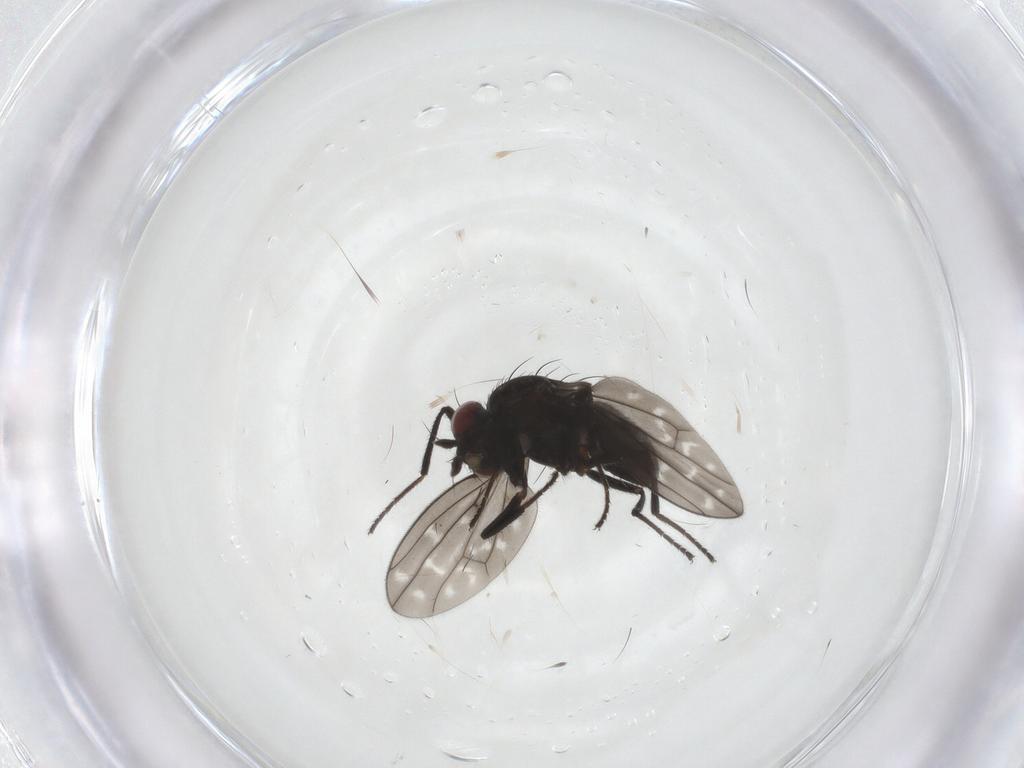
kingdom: Animalia
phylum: Arthropoda
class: Insecta
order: Diptera
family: Ephydridae
